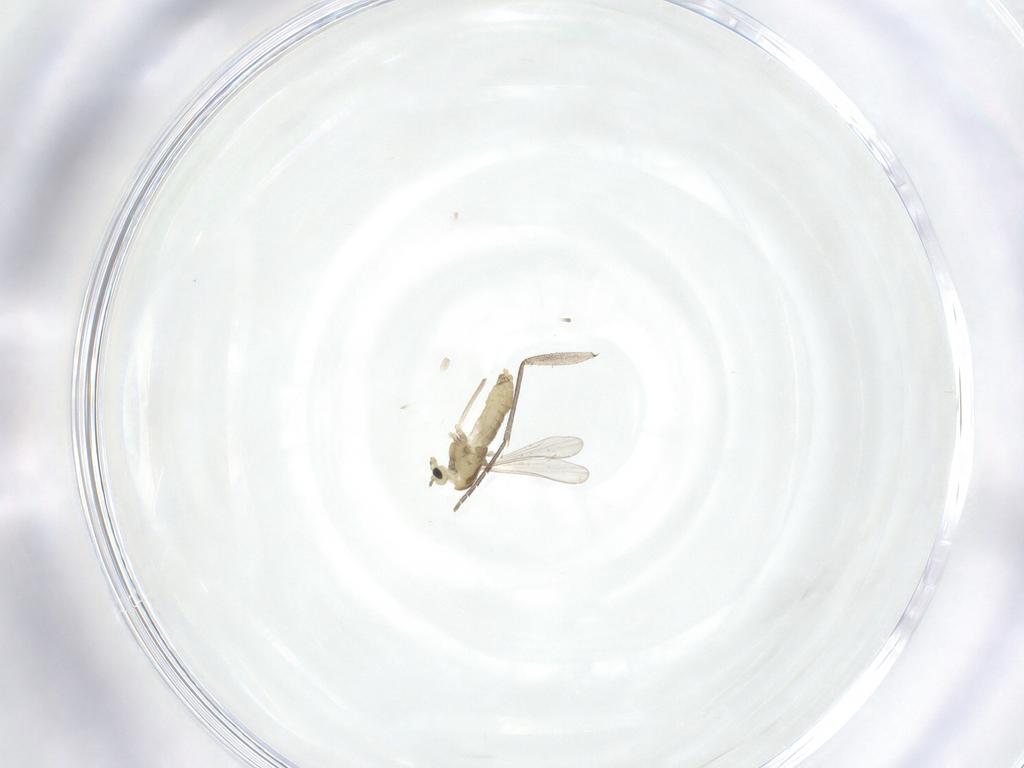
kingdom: Animalia
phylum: Arthropoda
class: Insecta
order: Diptera
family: Chironomidae
